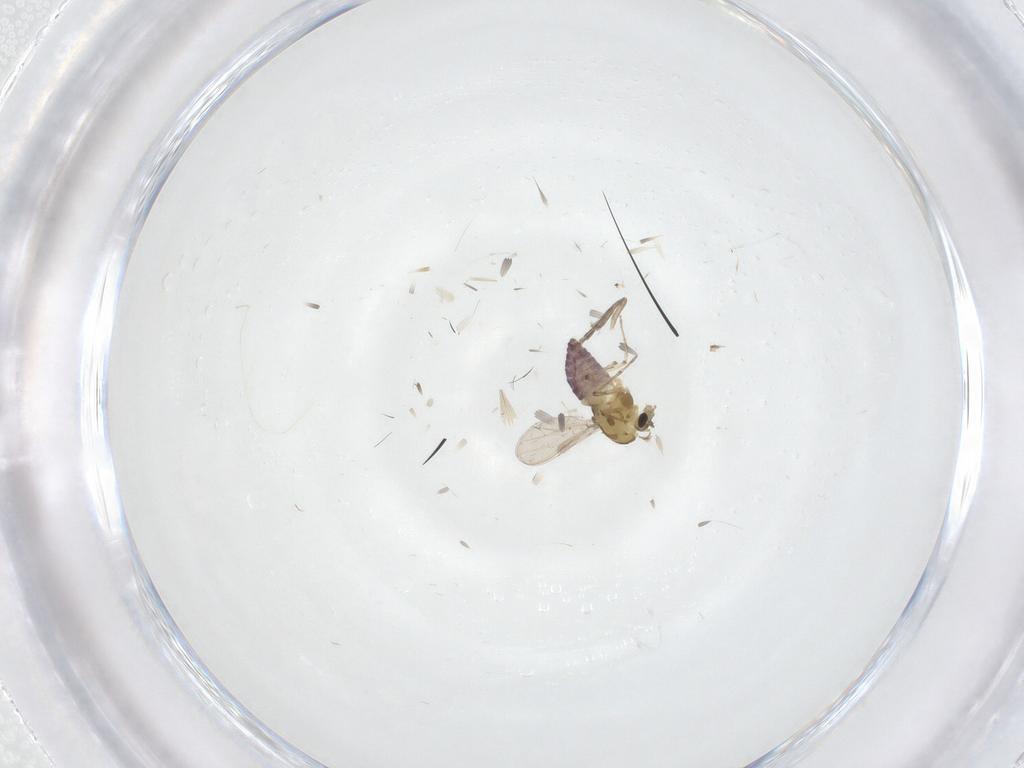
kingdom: Animalia
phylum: Arthropoda
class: Insecta
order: Diptera
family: Chironomidae
